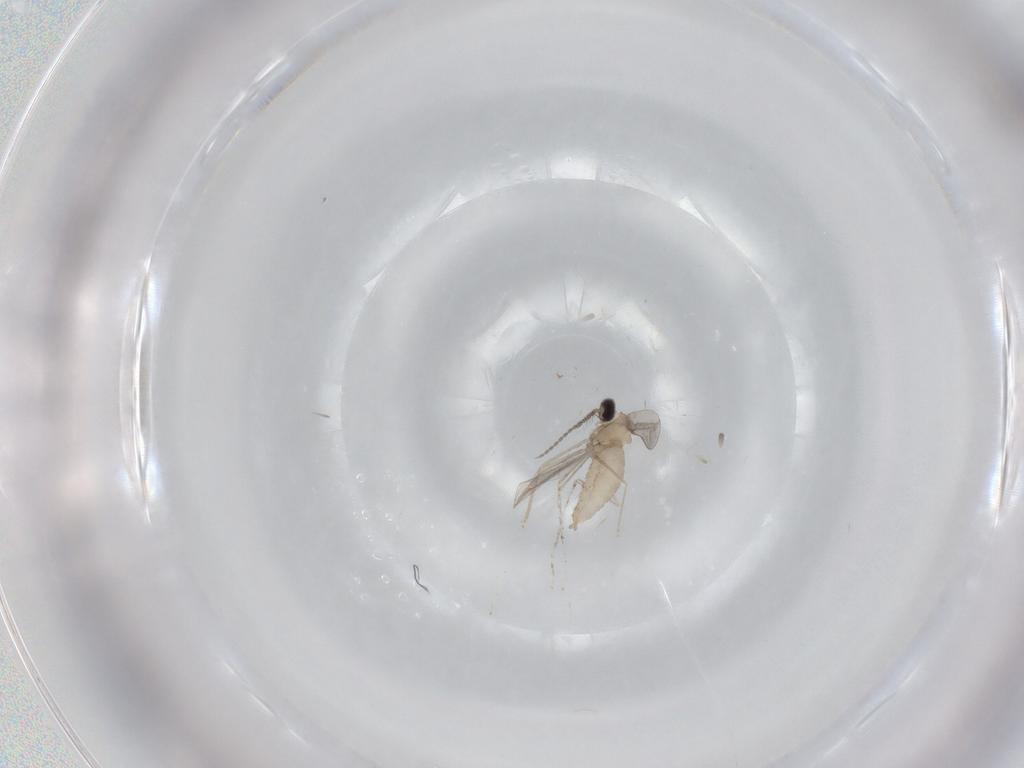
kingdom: Animalia
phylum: Arthropoda
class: Insecta
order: Diptera
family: Cecidomyiidae
